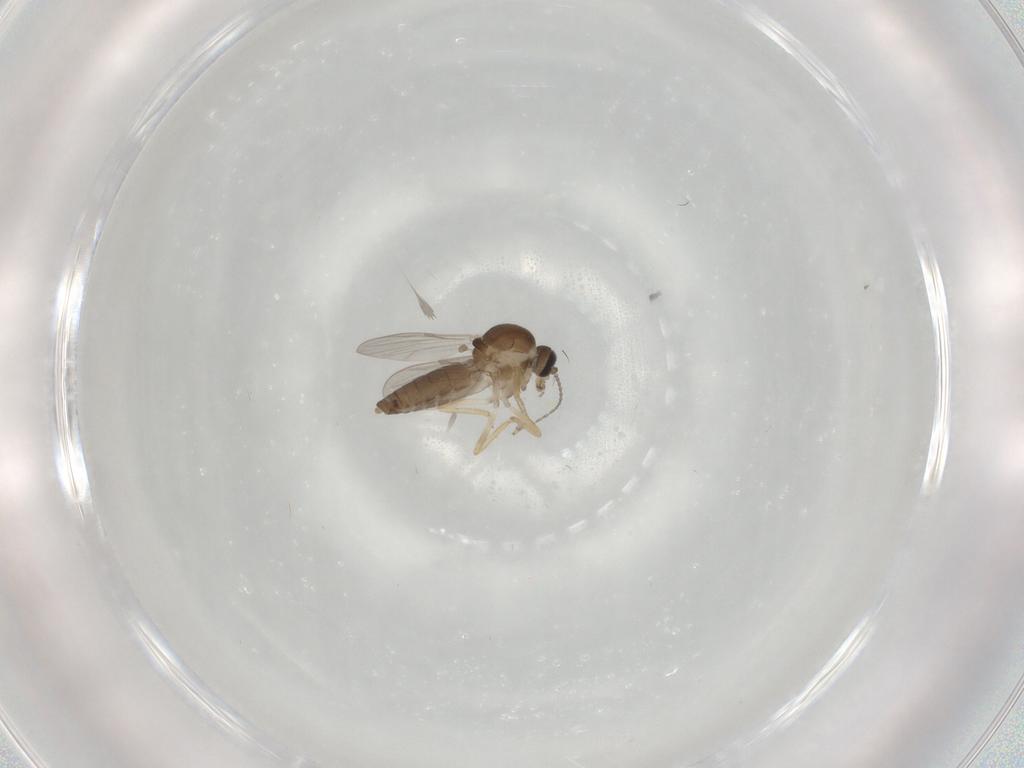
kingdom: Animalia
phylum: Arthropoda
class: Insecta
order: Diptera
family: Ceratopogonidae
